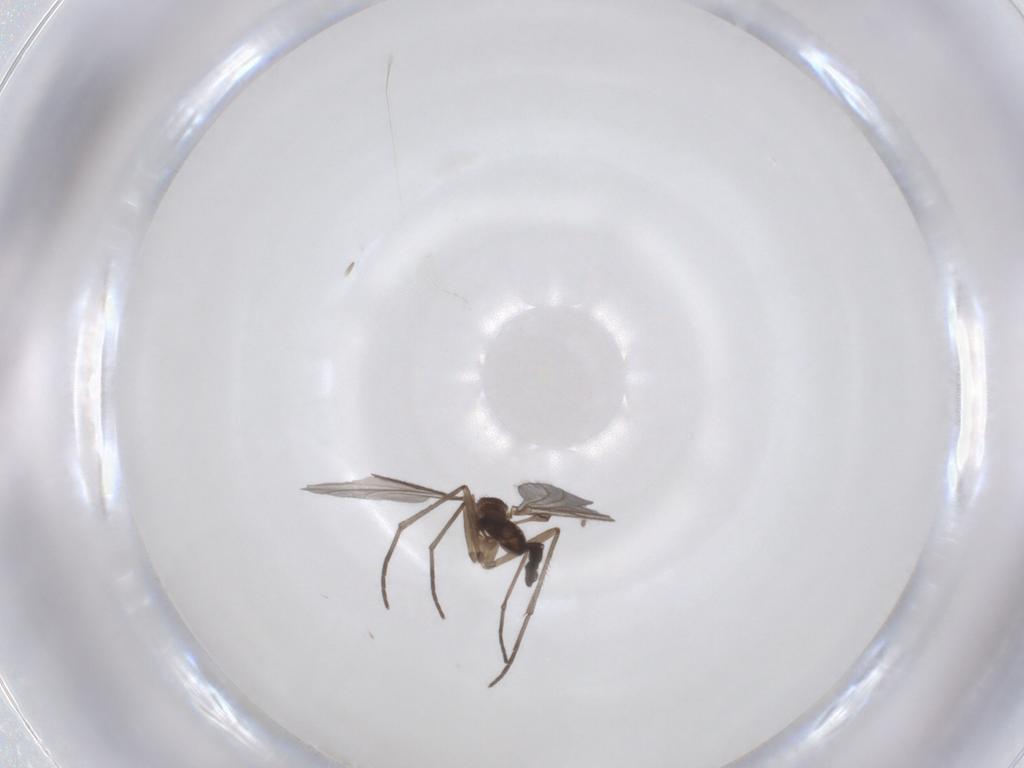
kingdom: Animalia
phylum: Arthropoda
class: Insecta
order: Diptera
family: Sciaridae
